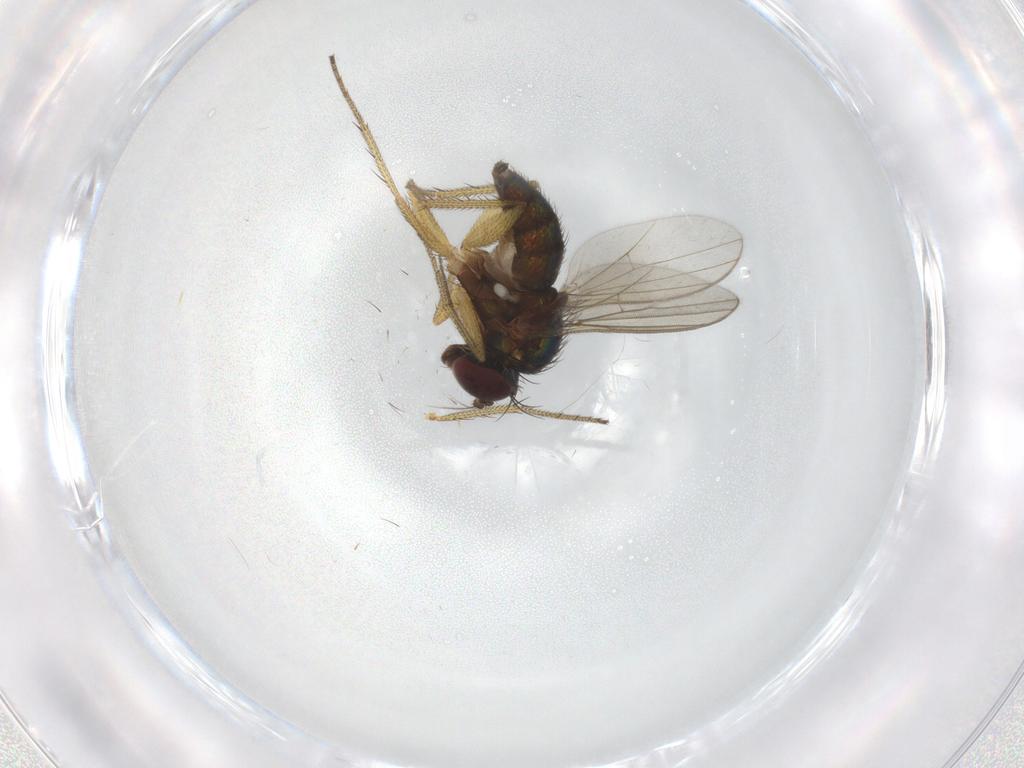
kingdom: Animalia
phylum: Arthropoda
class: Insecta
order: Diptera
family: Sciaridae
